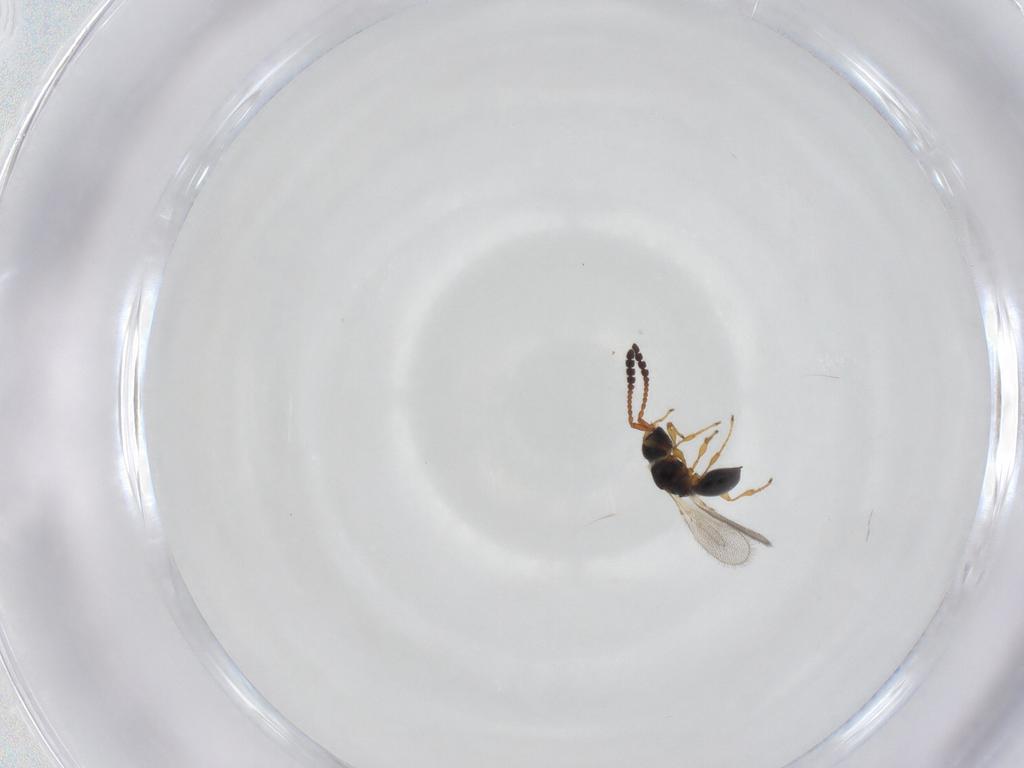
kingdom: Animalia
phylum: Arthropoda
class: Insecta
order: Hymenoptera
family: Diapriidae
